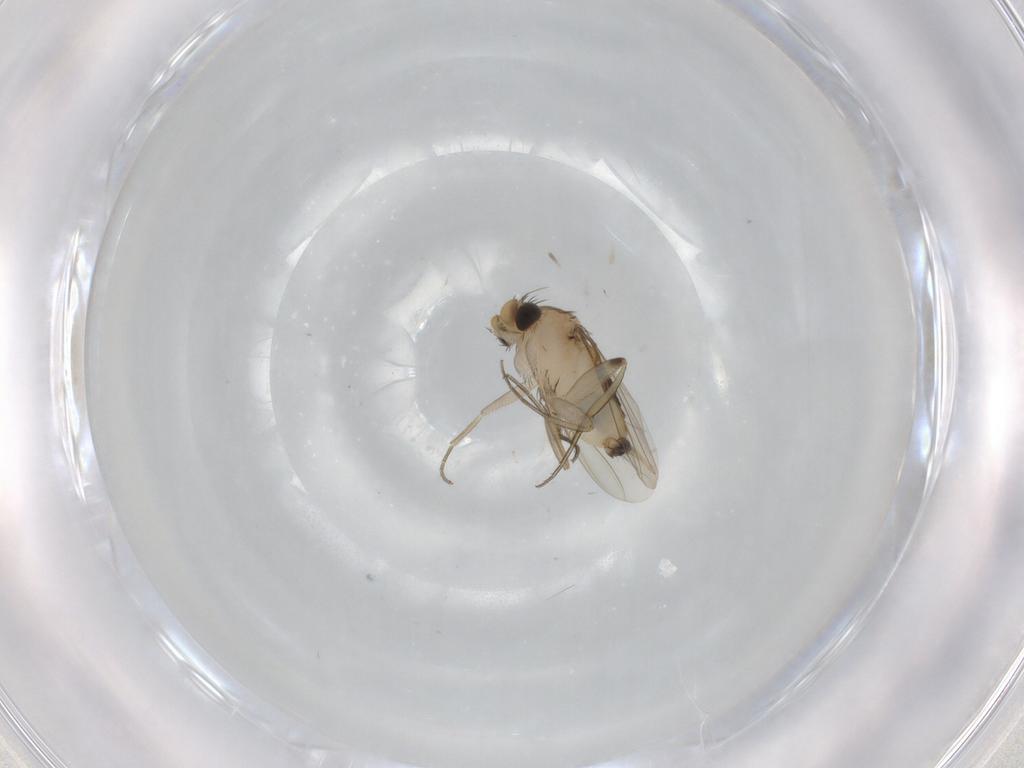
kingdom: Animalia
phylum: Arthropoda
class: Insecta
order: Diptera
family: Phoridae
